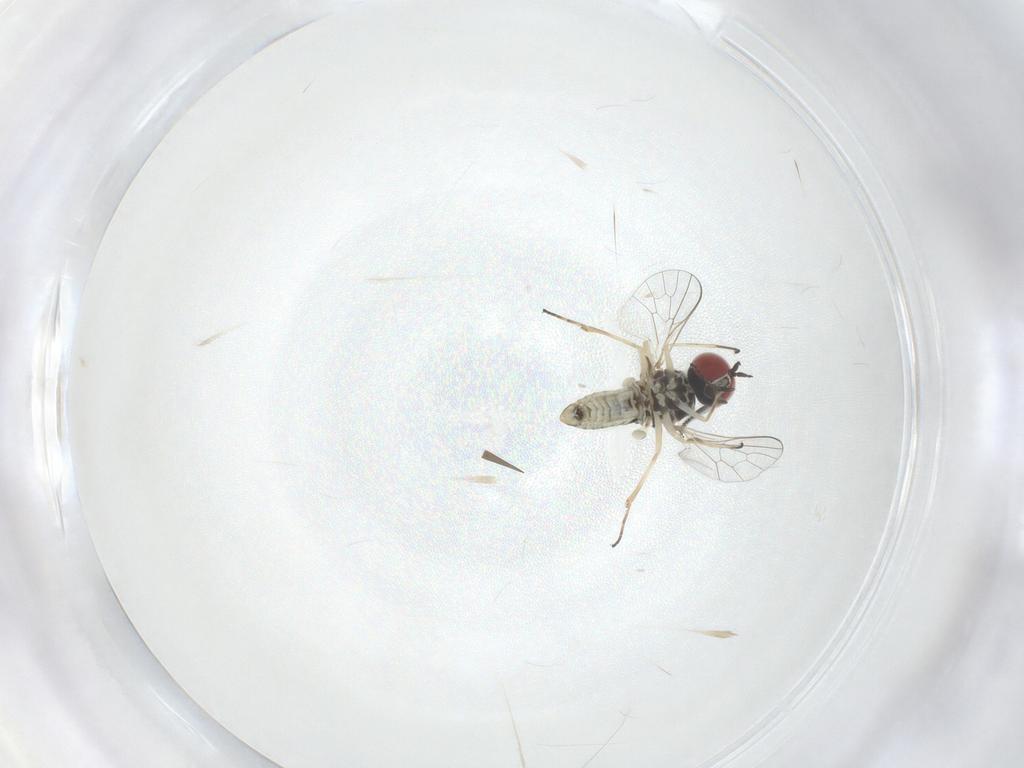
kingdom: Animalia
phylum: Arthropoda
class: Insecta
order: Diptera
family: Bombyliidae
